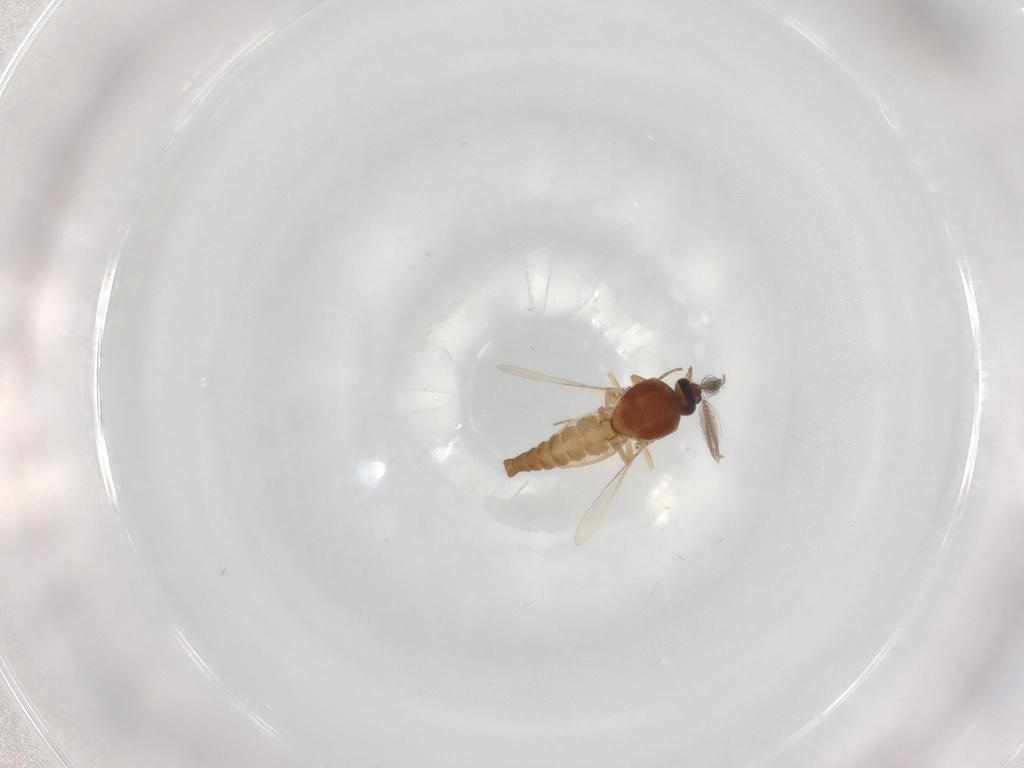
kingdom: Animalia
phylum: Arthropoda
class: Insecta
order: Diptera
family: Ceratopogonidae
